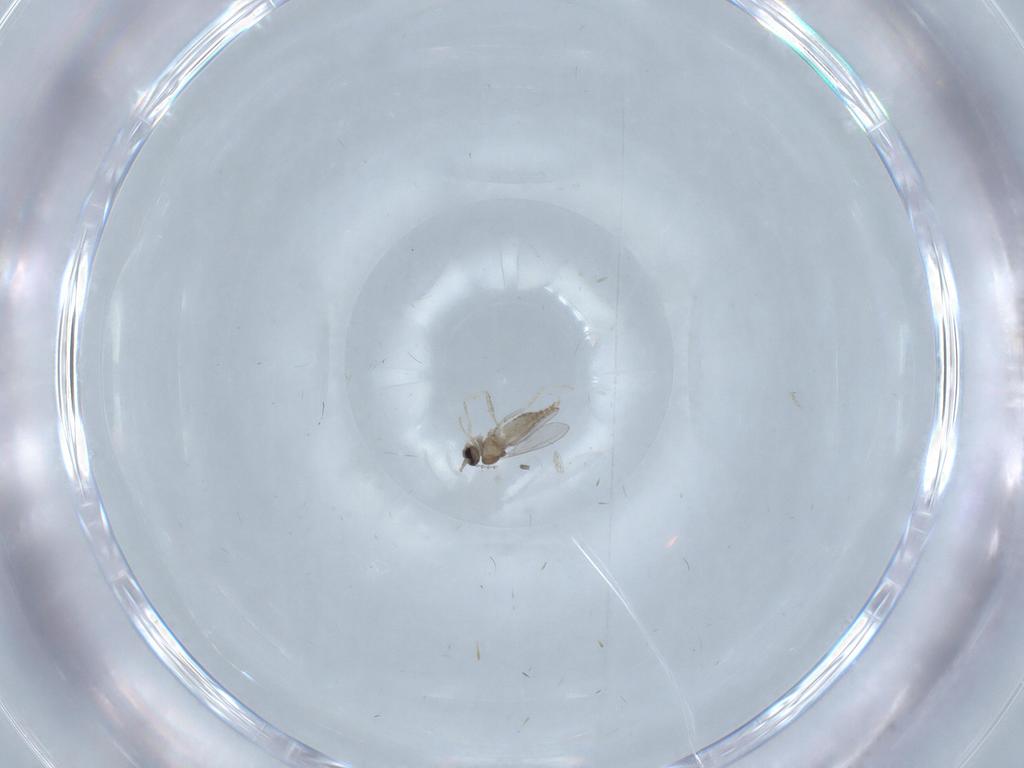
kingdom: Animalia
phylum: Arthropoda
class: Insecta
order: Diptera
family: Cecidomyiidae
